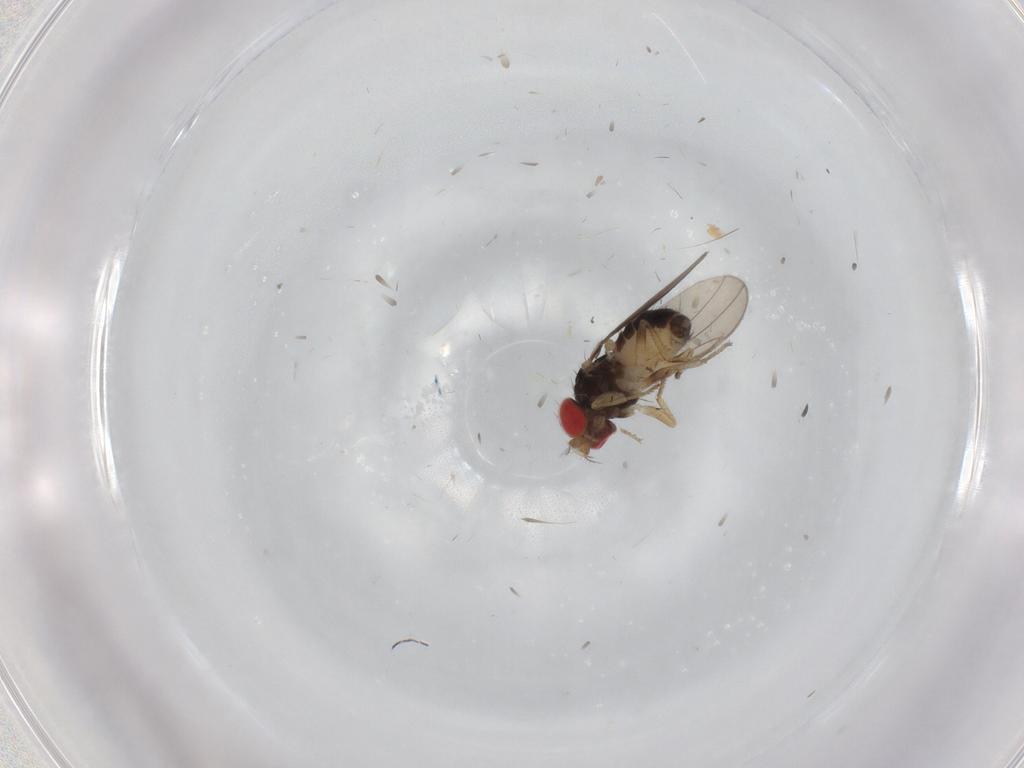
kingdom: Animalia
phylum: Arthropoda
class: Insecta
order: Diptera
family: Drosophilidae
